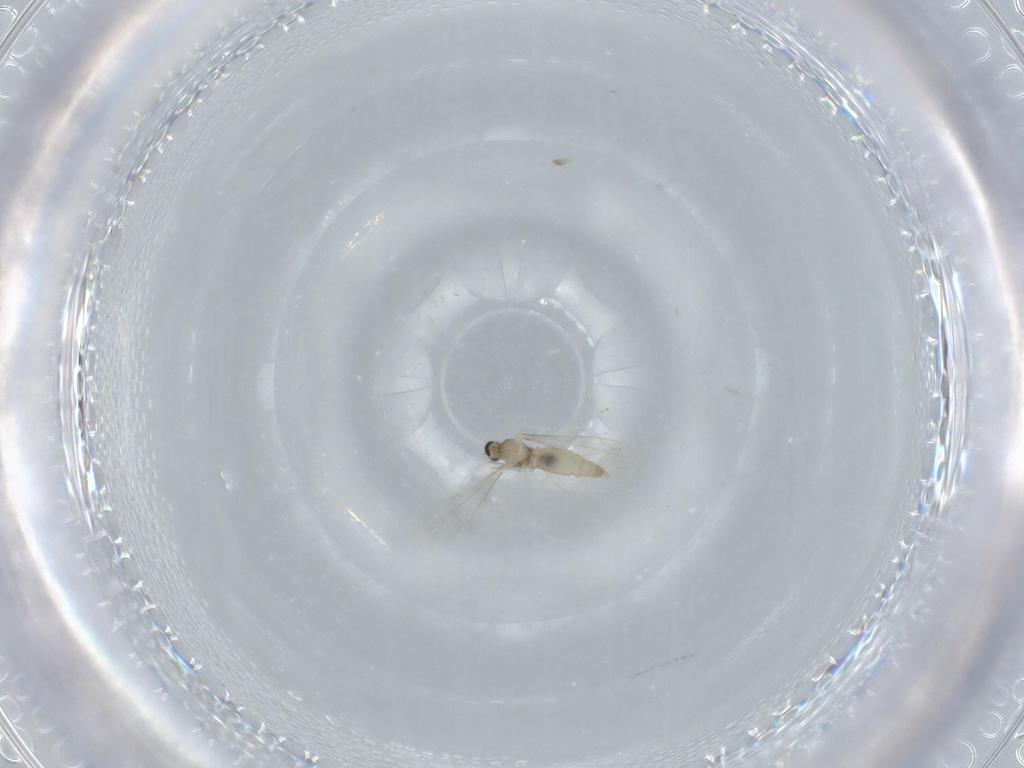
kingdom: Animalia
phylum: Arthropoda
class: Insecta
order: Diptera
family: Cecidomyiidae
